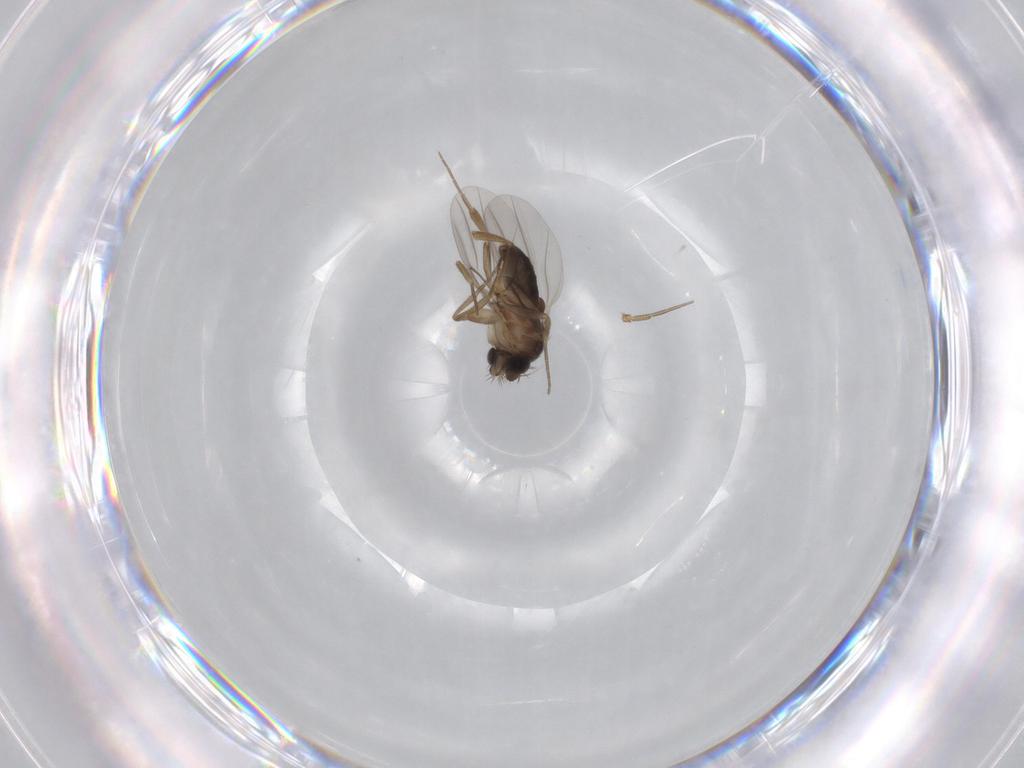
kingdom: Animalia
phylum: Arthropoda
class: Insecta
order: Diptera
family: Phoridae
